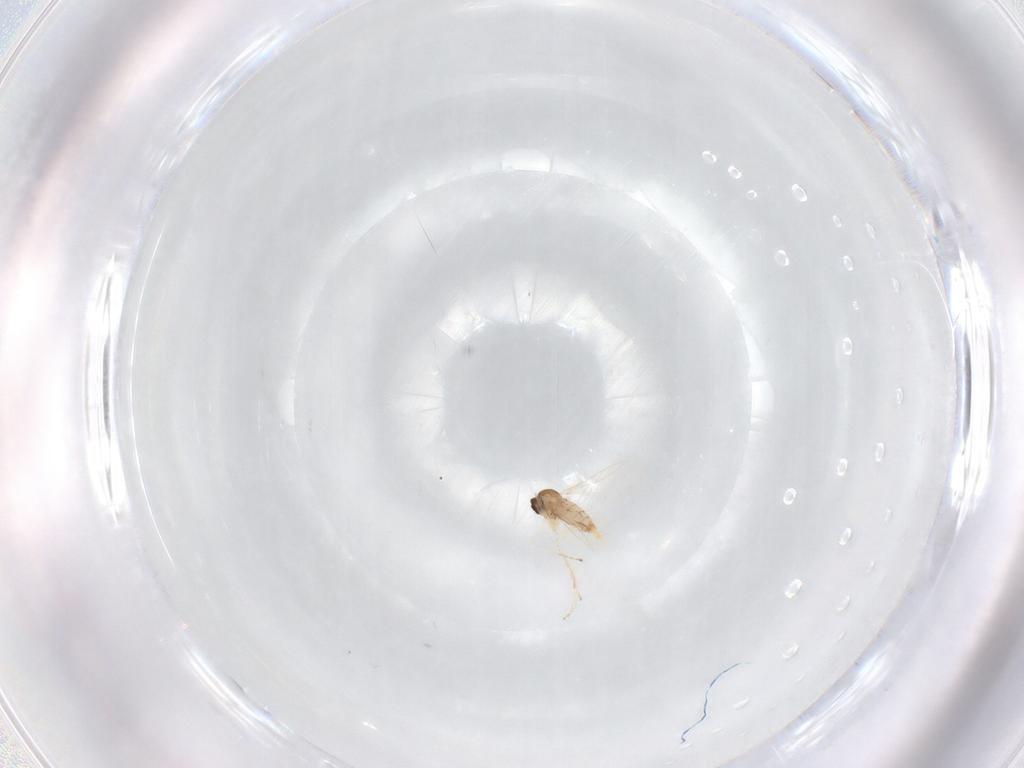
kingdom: Animalia
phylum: Arthropoda
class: Insecta
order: Diptera
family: Cecidomyiidae
